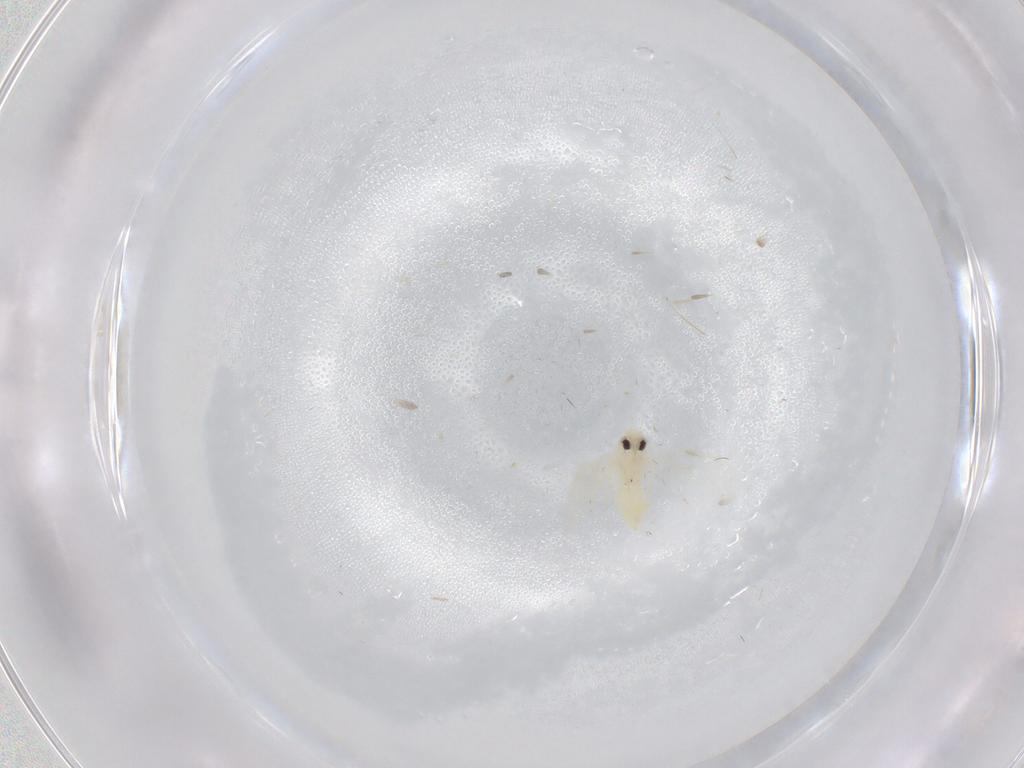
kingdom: Animalia
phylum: Arthropoda
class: Insecta
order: Hemiptera
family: Aleyrodidae
